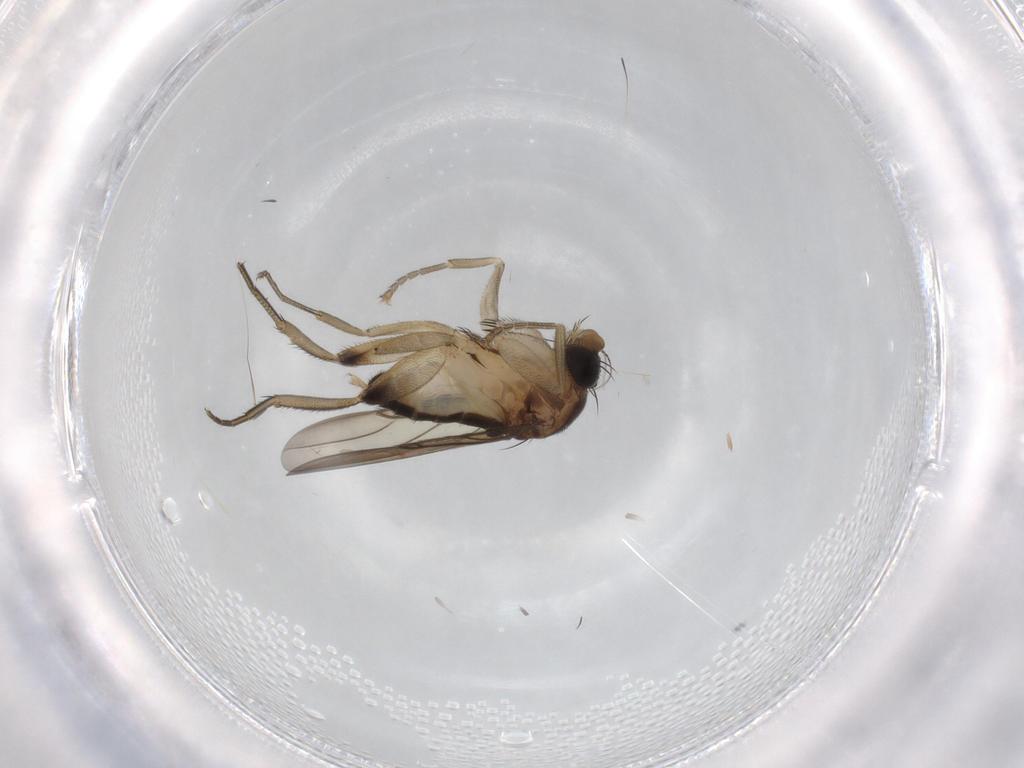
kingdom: Animalia
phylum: Arthropoda
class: Insecta
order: Diptera
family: Phoridae
